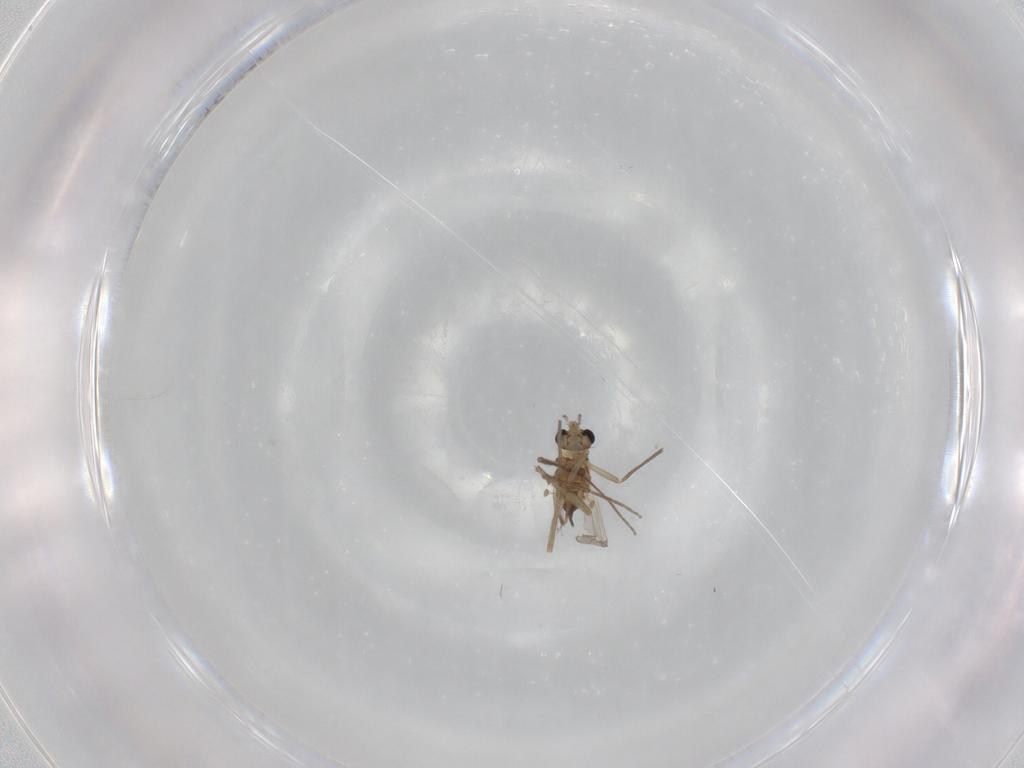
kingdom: Animalia
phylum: Arthropoda
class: Insecta
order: Diptera
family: Chironomidae
